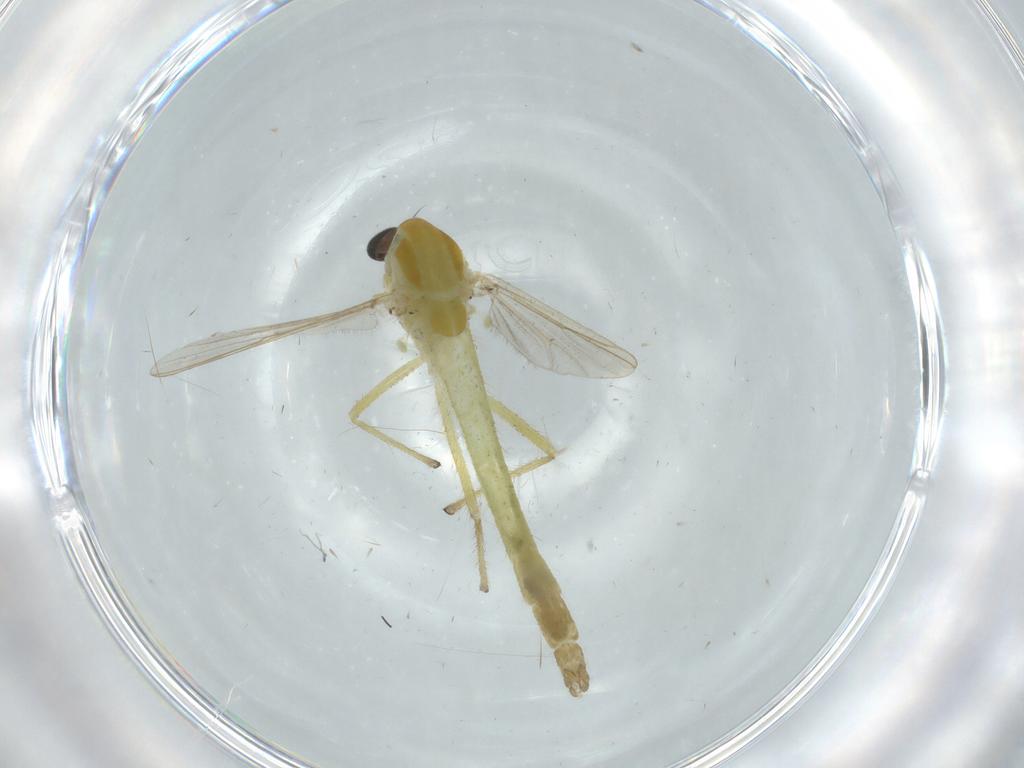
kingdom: Animalia
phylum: Arthropoda
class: Insecta
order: Diptera
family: Chironomidae
